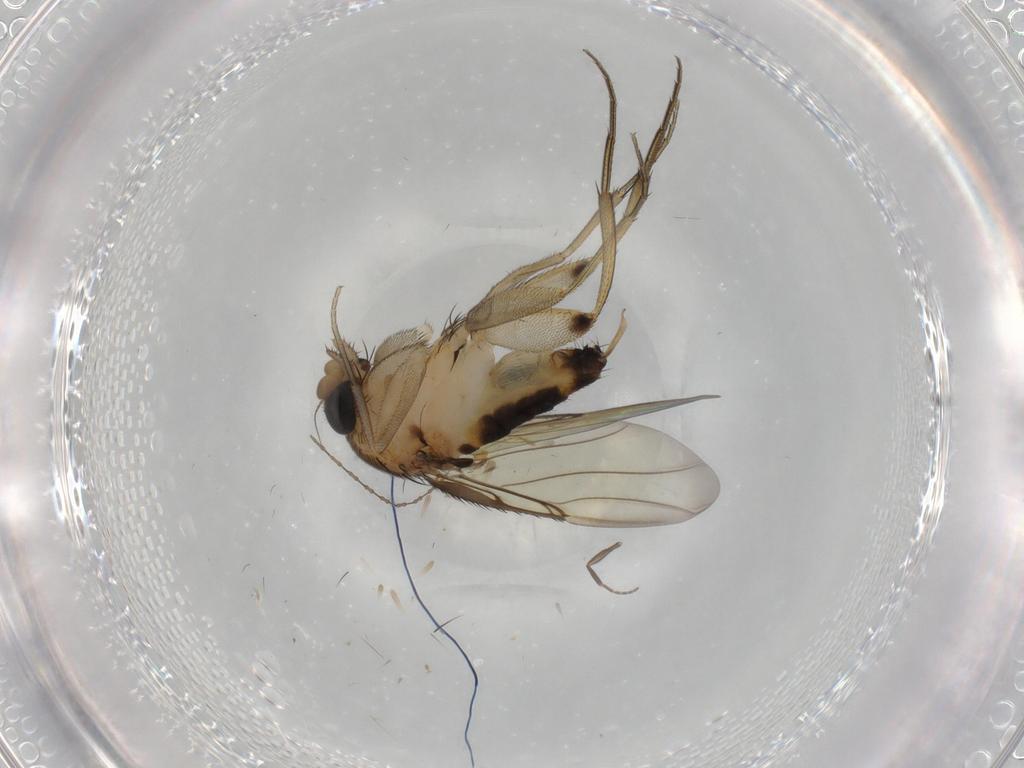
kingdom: Animalia
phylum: Arthropoda
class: Insecta
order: Diptera
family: Phoridae
